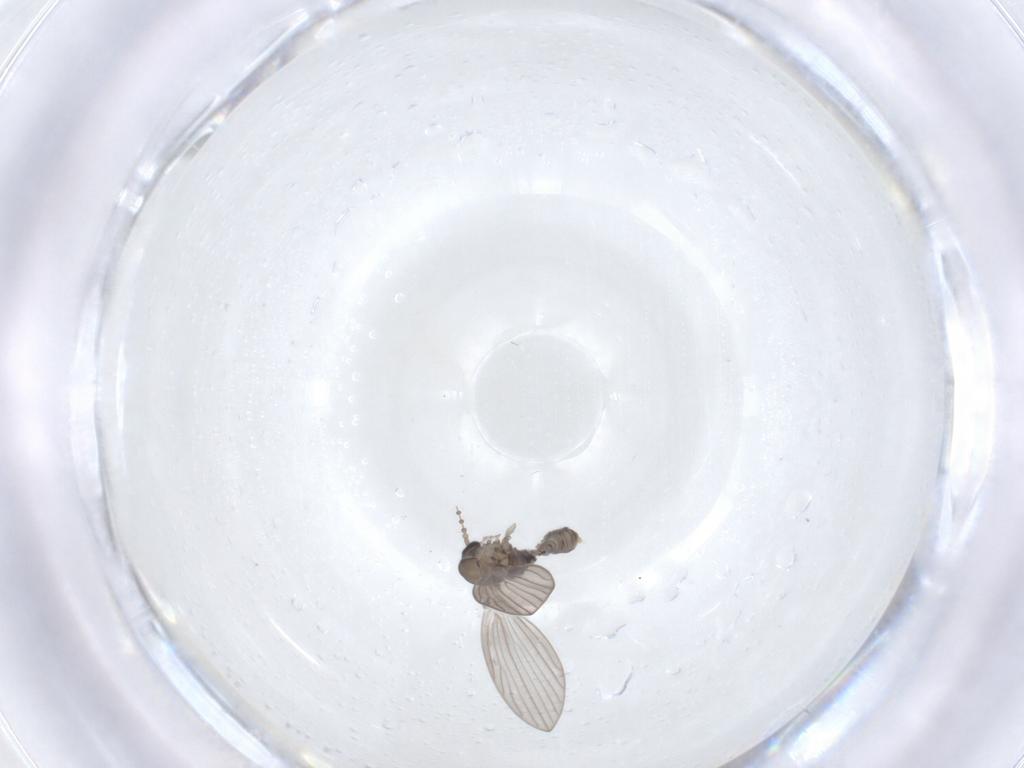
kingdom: Animalia
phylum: Arthropoda
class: Insecta
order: Diptera
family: Psychodidae
